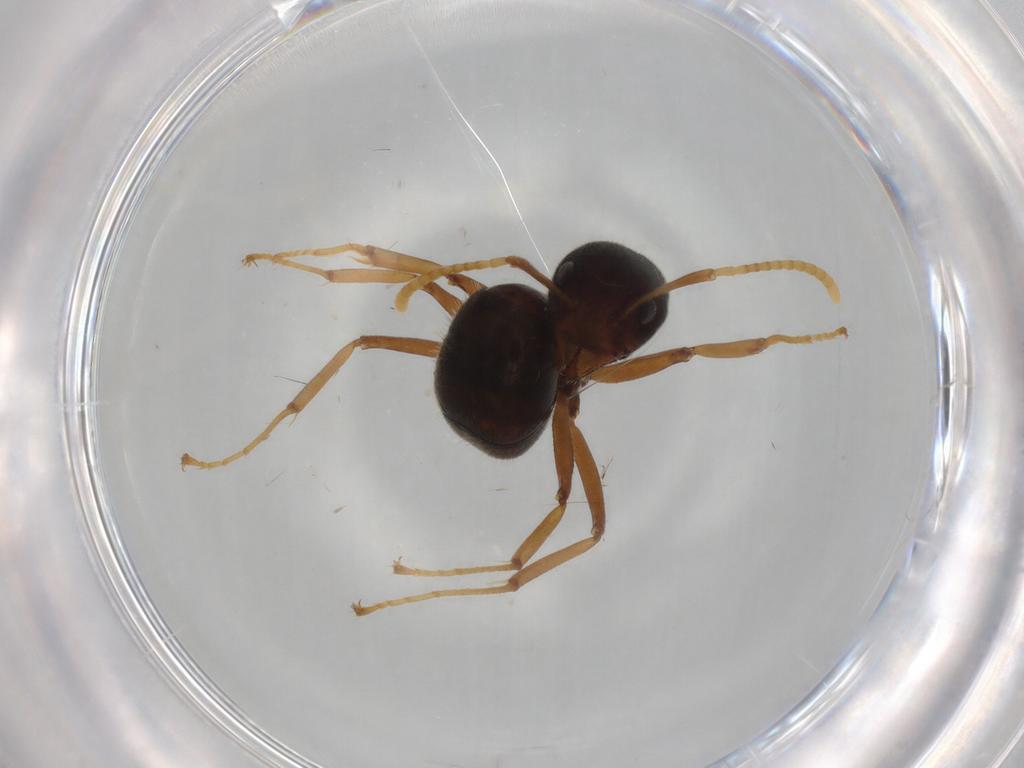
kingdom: Animalia
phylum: Arthropoda
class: Insecta
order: Hymenoptera
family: Formicidae
